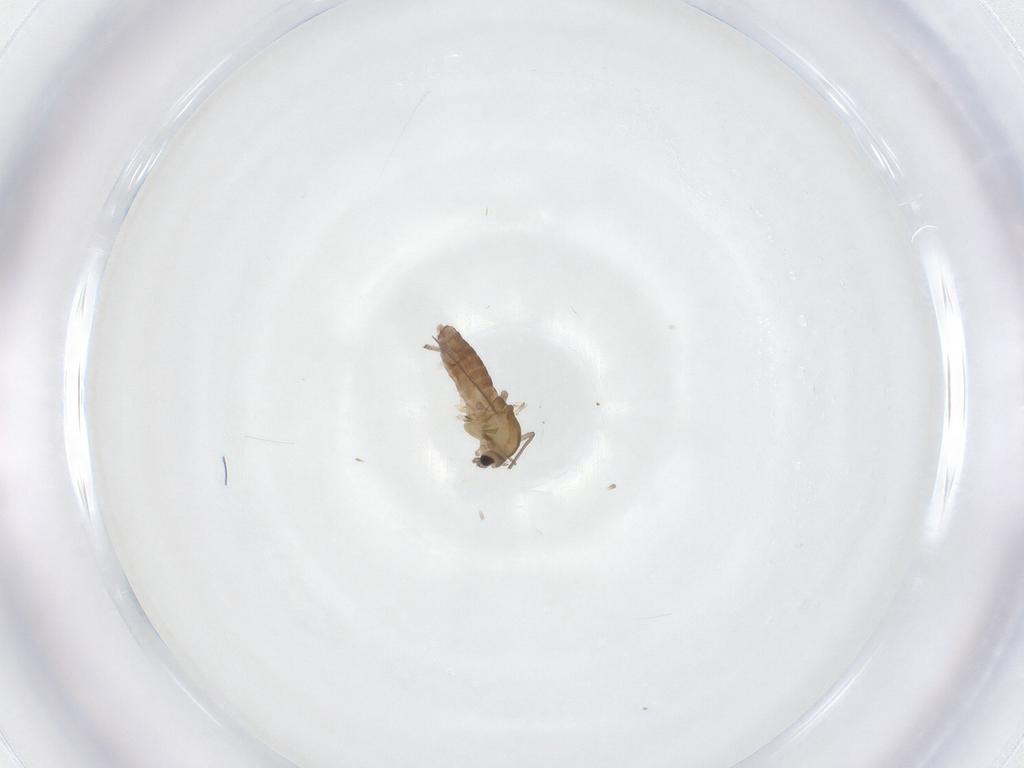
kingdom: Animalia
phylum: Arthropoda
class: Insecta
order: Diptera
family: Chironomidae
